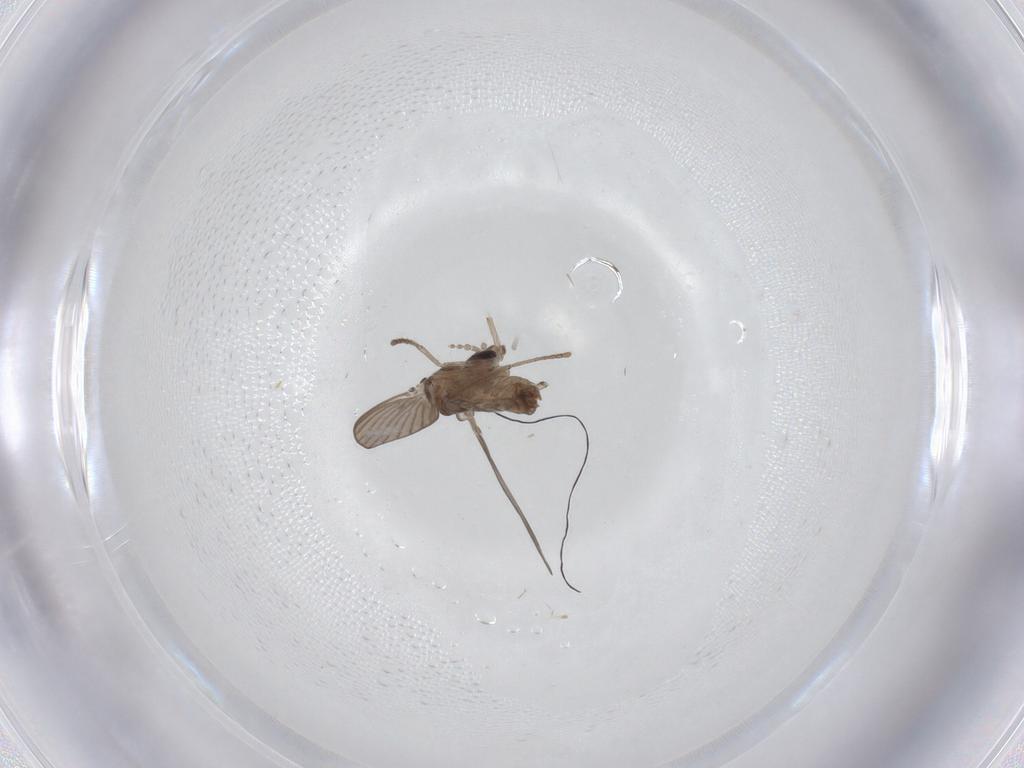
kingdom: Animalia
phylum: Arthropoda
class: Insecta
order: Diptera
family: Psychodidae
